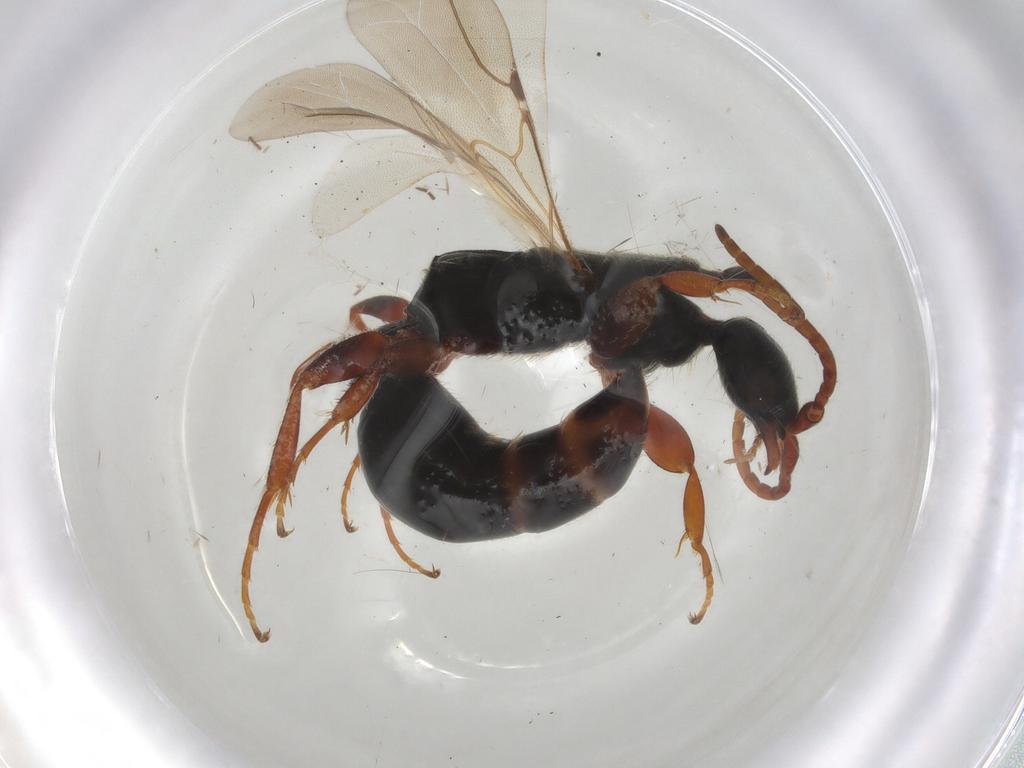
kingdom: Animalia
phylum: Arthropoda
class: Insecta
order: Hymenoptera
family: Bethylidae
